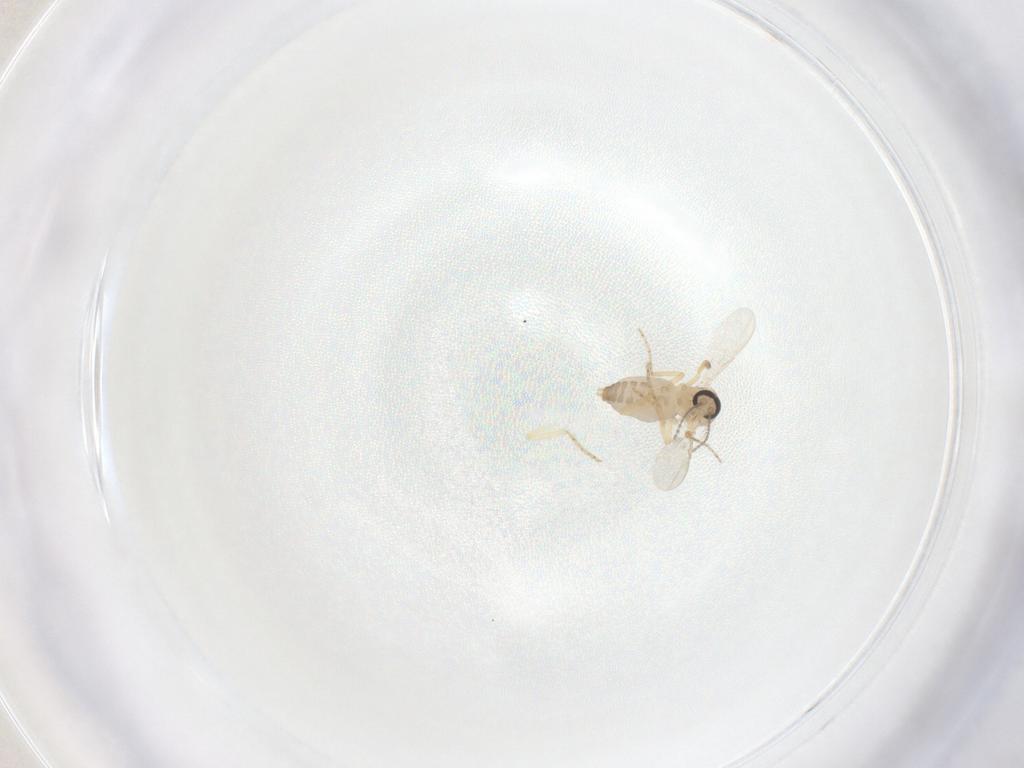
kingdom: Animalia
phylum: Arthropoda
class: Insecta
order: Diptera
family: Ceratopogonidae
